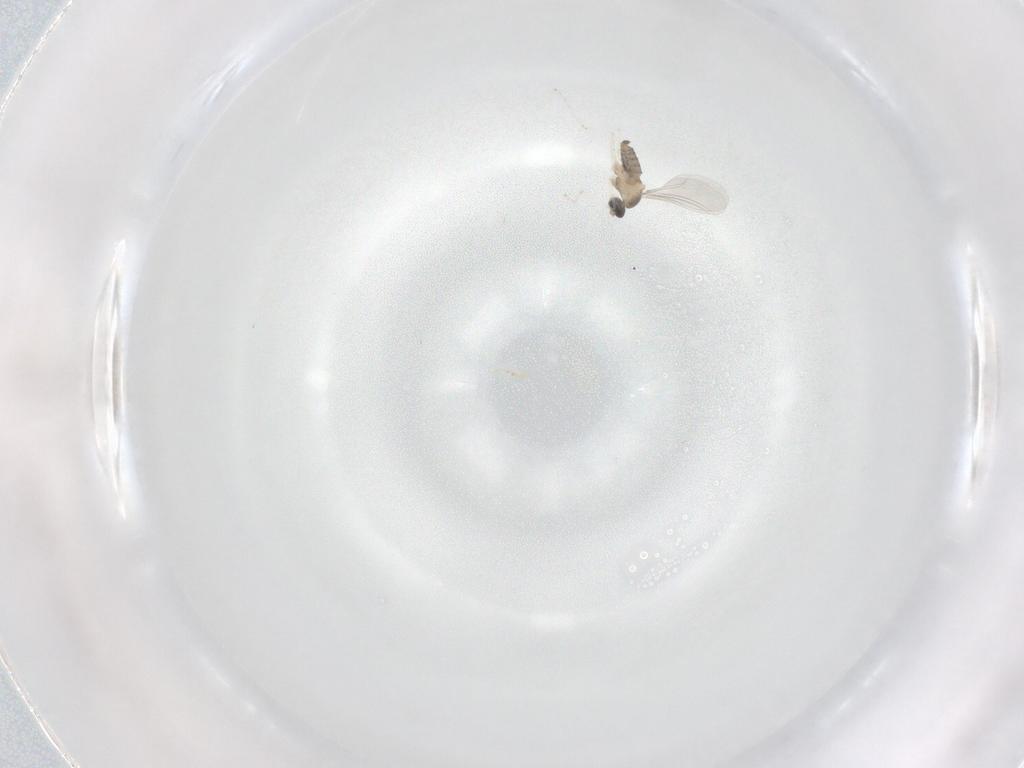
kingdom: Animalia
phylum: Arthropoda
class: Insecta
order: Diptera
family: Cecidomyiidae
